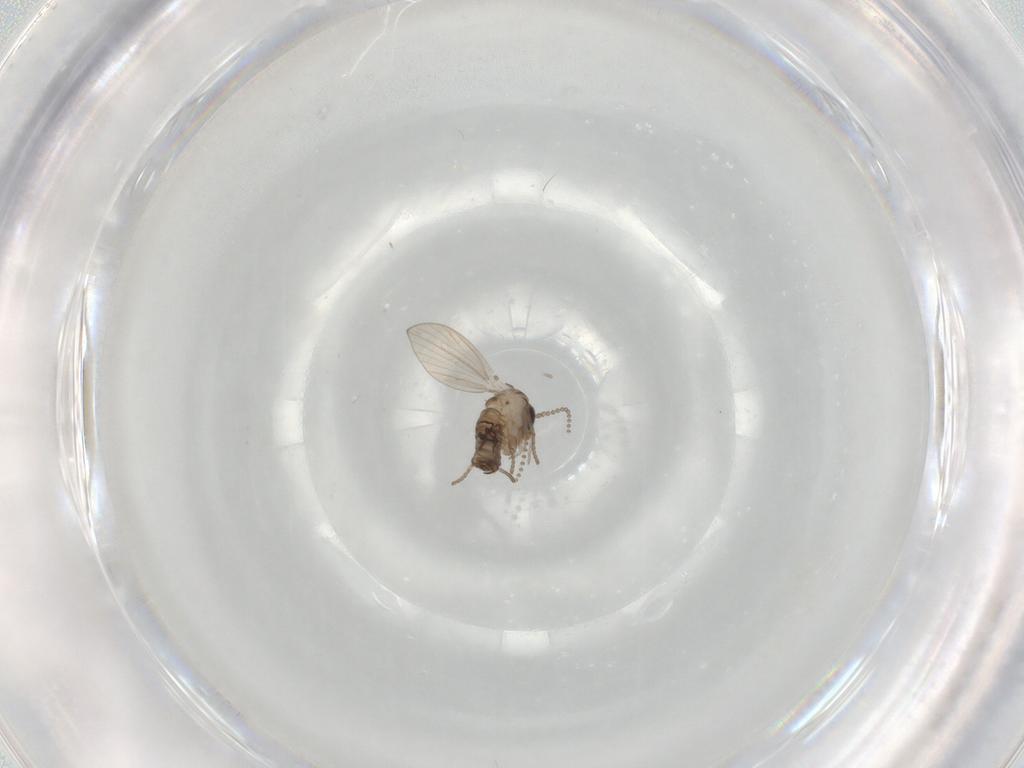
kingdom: Animalia
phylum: Arthropoda
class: Insecta
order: Diptera
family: Psychodidae
